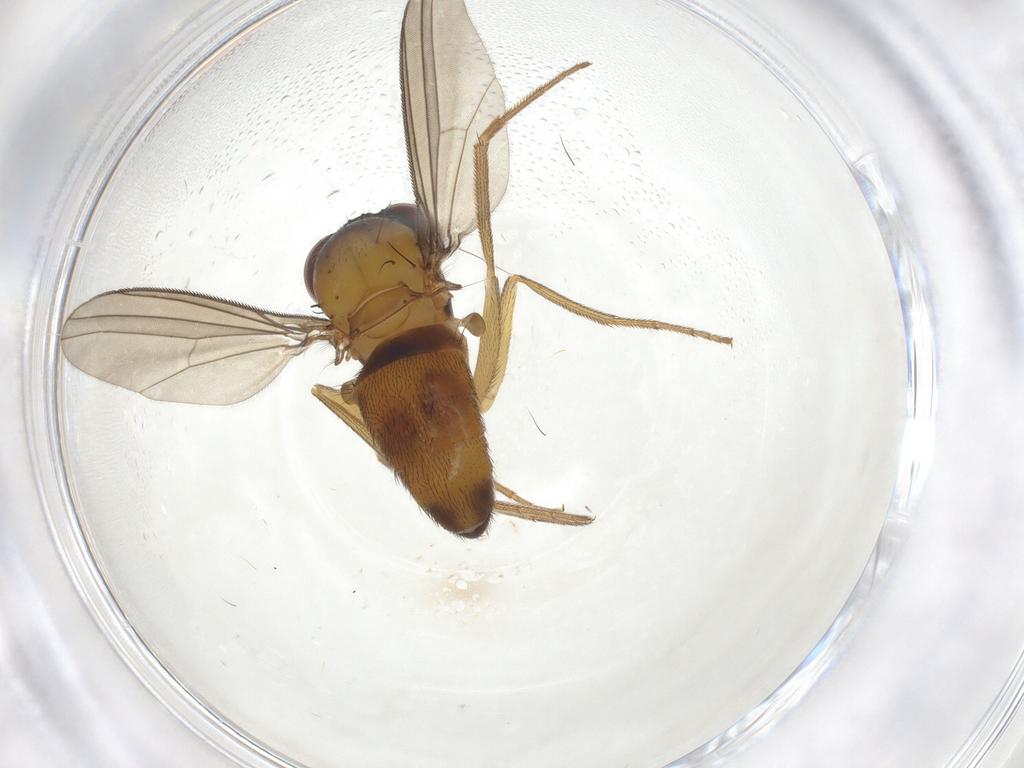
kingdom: Animalia
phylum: Arthropoda
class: Insecta
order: Diptera
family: Dolichopodidae
